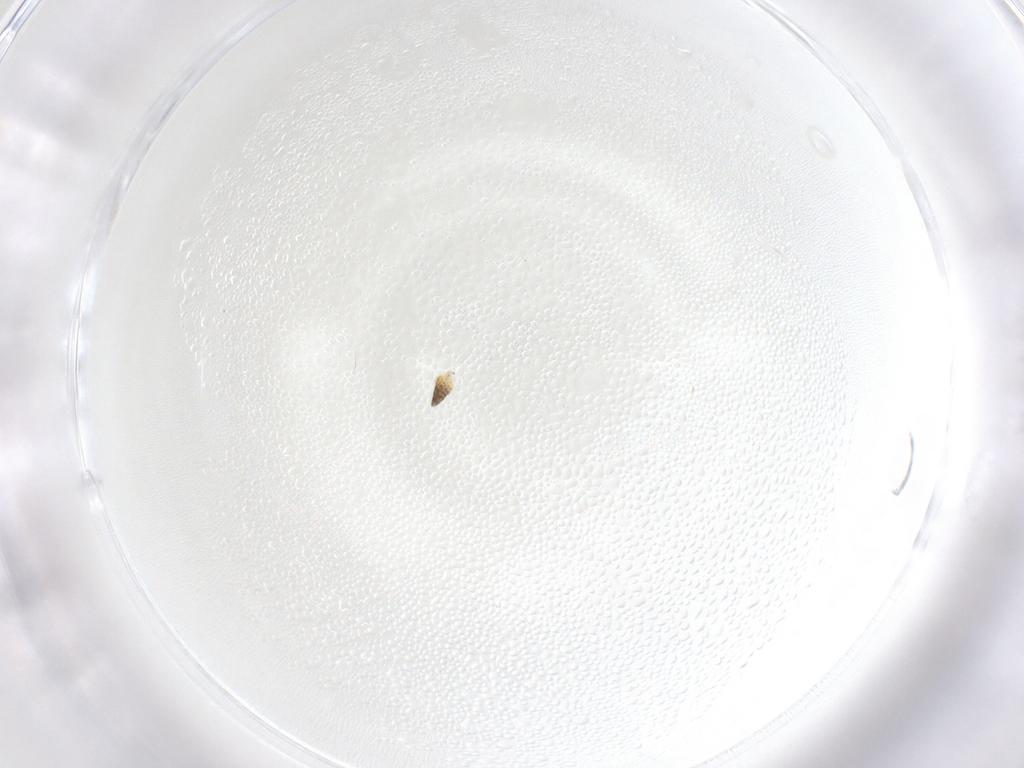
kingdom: Animalia
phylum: Arthropoda
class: Insecta
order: Hymenoptera
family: Mymaridae
